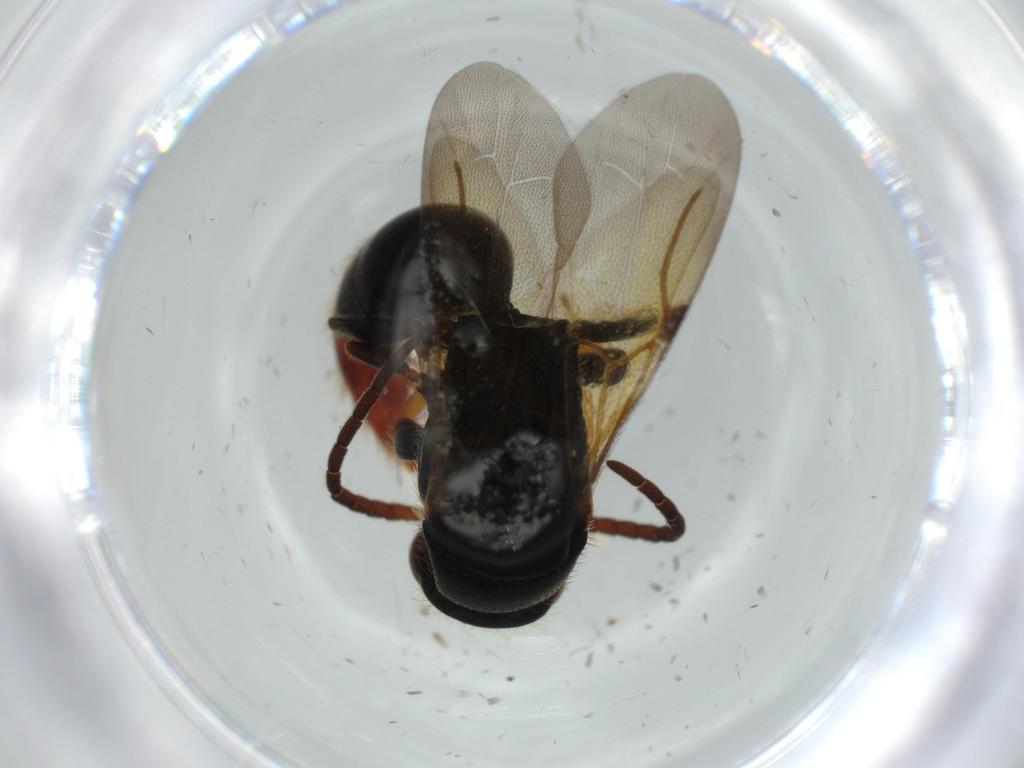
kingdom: Animalia
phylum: Arthropoda
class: Insecta
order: Hymenoptera
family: Bethylidae
